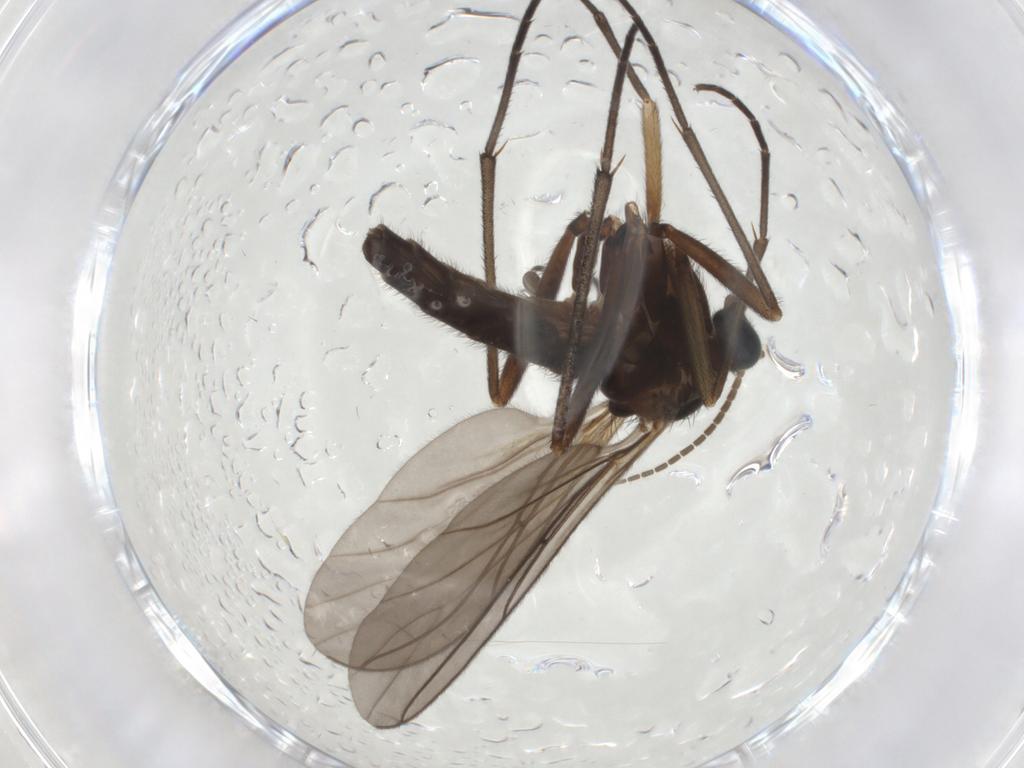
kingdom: Animalia
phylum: Arthropoda
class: Insecta
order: Diptera
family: Sciaridae
